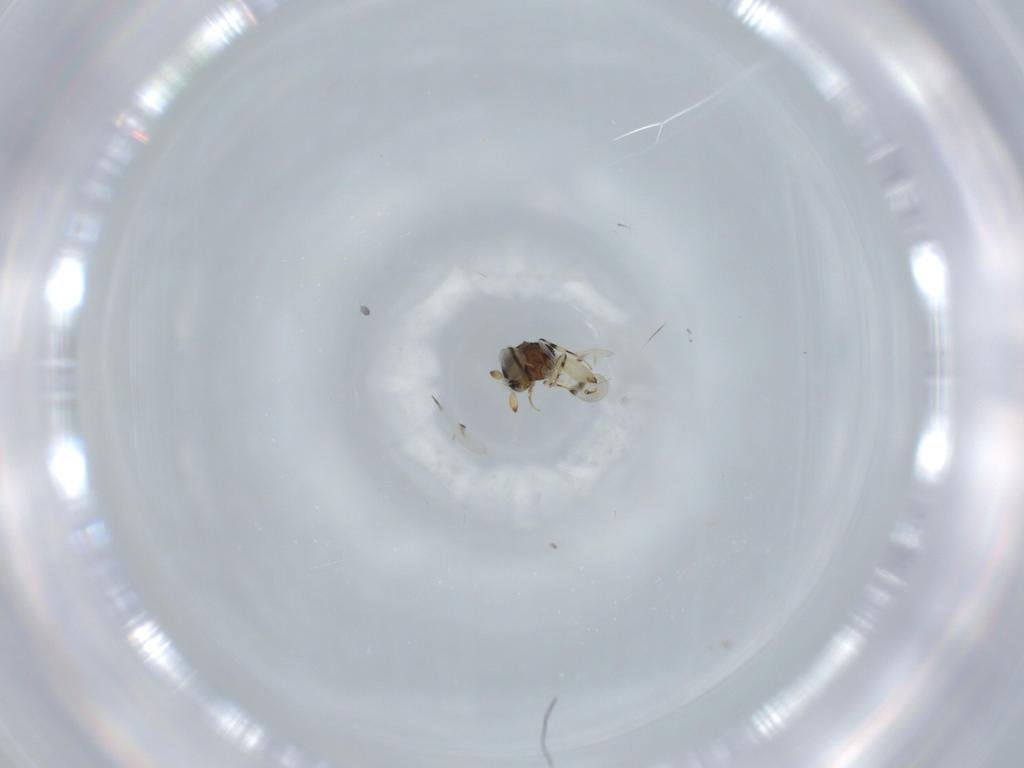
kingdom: Animalia
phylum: Arthropoda
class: Insecta
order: Hymenoptera
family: Scelionidae
